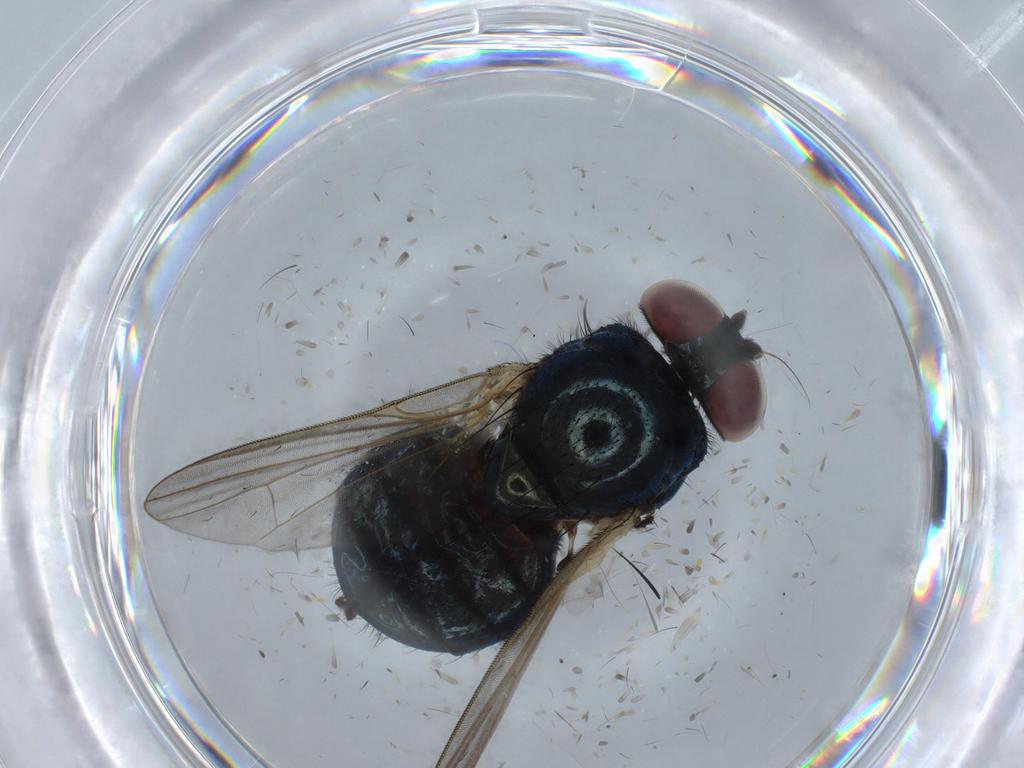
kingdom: Animalia
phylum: Arthropoda
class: Insecta
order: Diptera
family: Lonchaeidae
